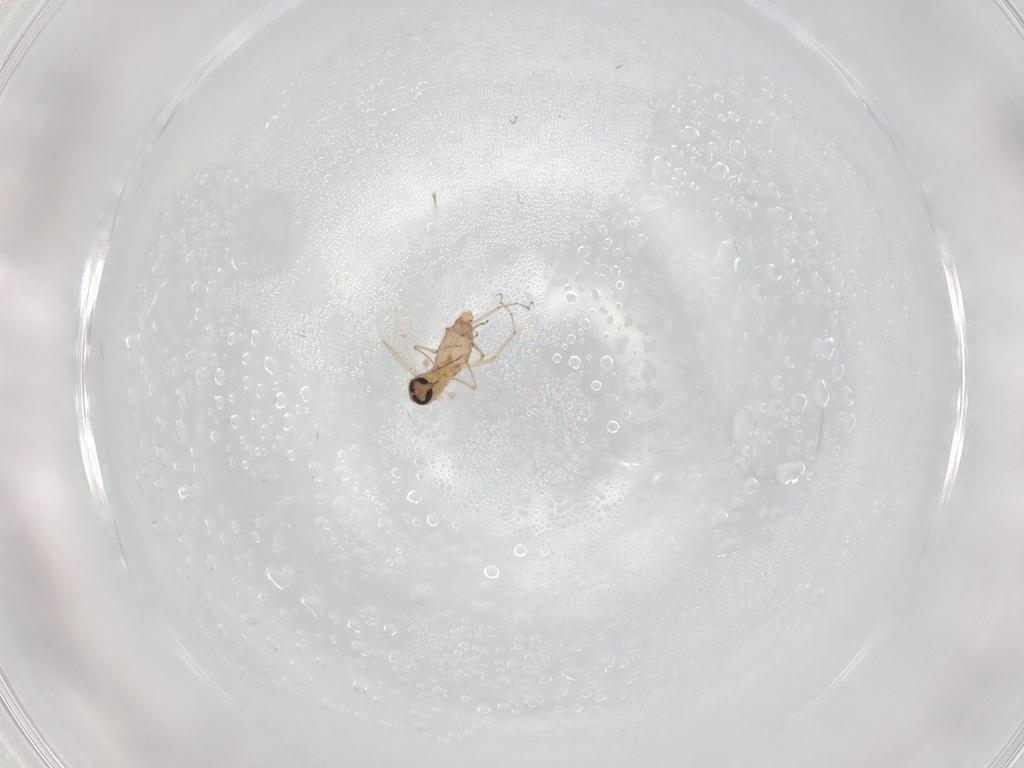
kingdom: Animalia
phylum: Arthropoda
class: Insecta
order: Diptera
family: Ceratopogonidae
